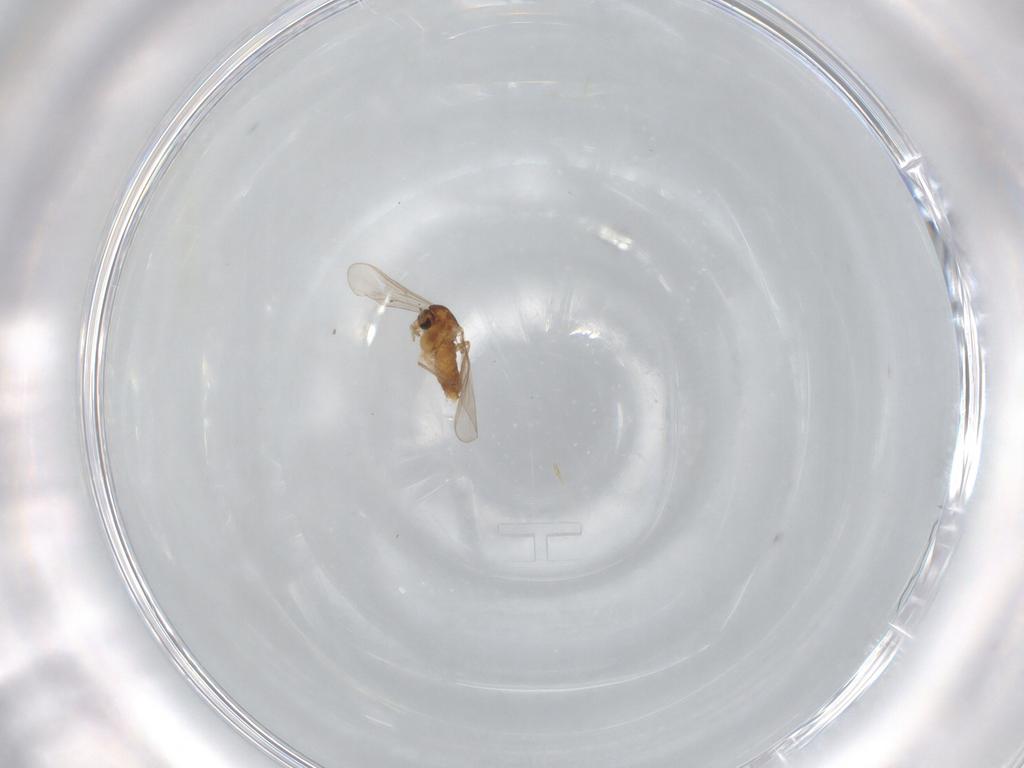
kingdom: Animalia
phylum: Arthropoda
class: Insecta
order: Diptera
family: Chironomidae
